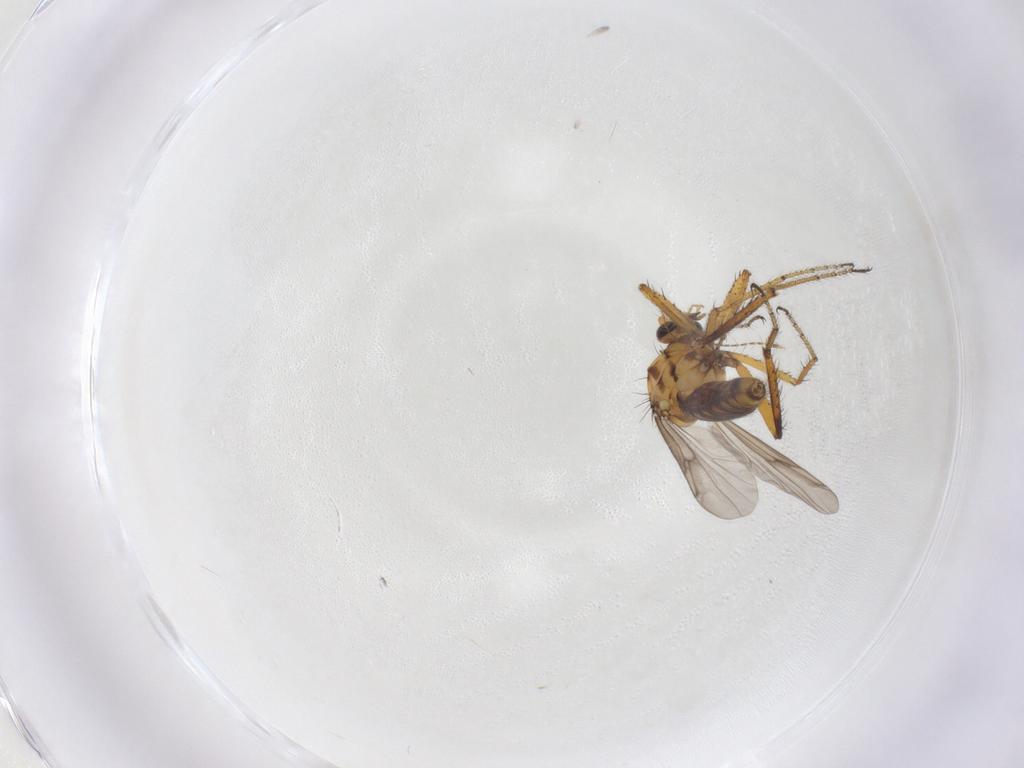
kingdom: Animalia
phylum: Arthropoda
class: Insecta
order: Diptera
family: Ceratopogonidae
